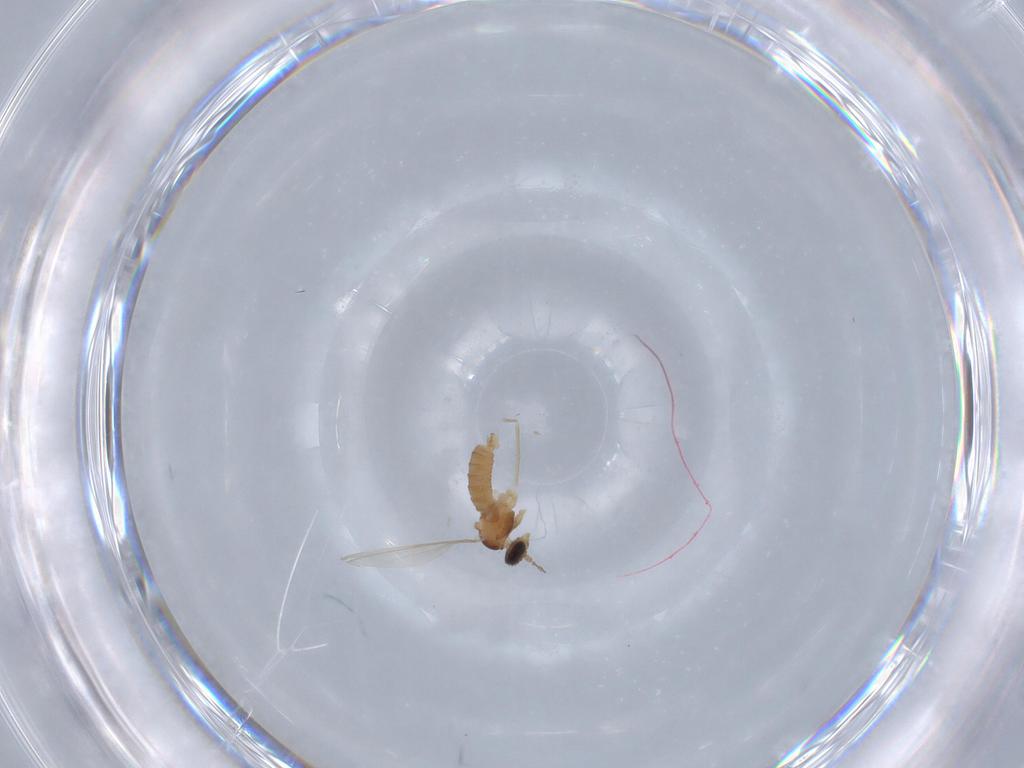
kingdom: Animalia
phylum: Arthropoda
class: Insecta
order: Diptera
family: Cecidomyiidae
